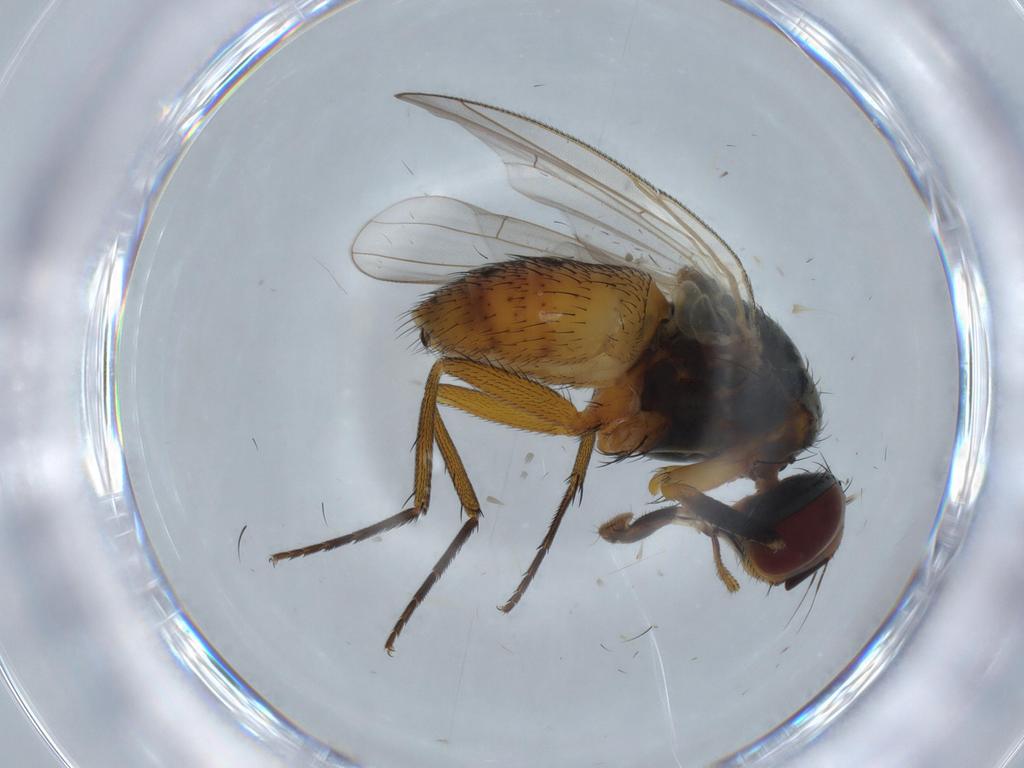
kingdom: Animalia
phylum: Arthropoda
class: Insecta
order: Diptera
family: Muscidae
